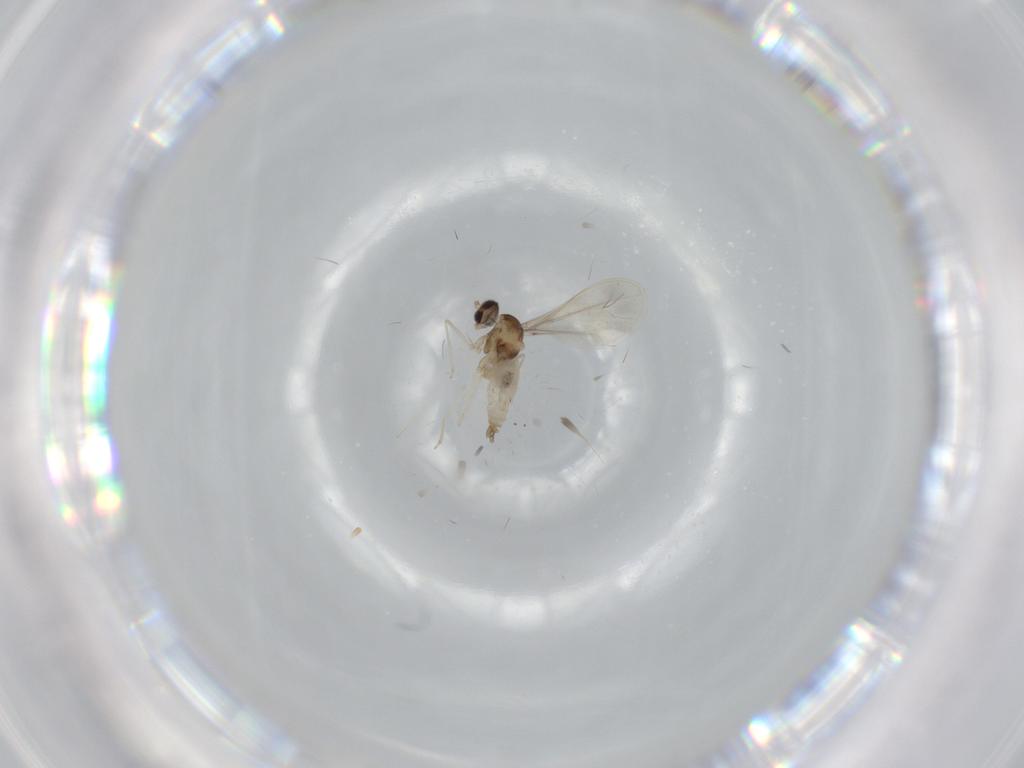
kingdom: Animalia
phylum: Arthropoda
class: Insecta
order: Diptera
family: Cecidomyiidae
